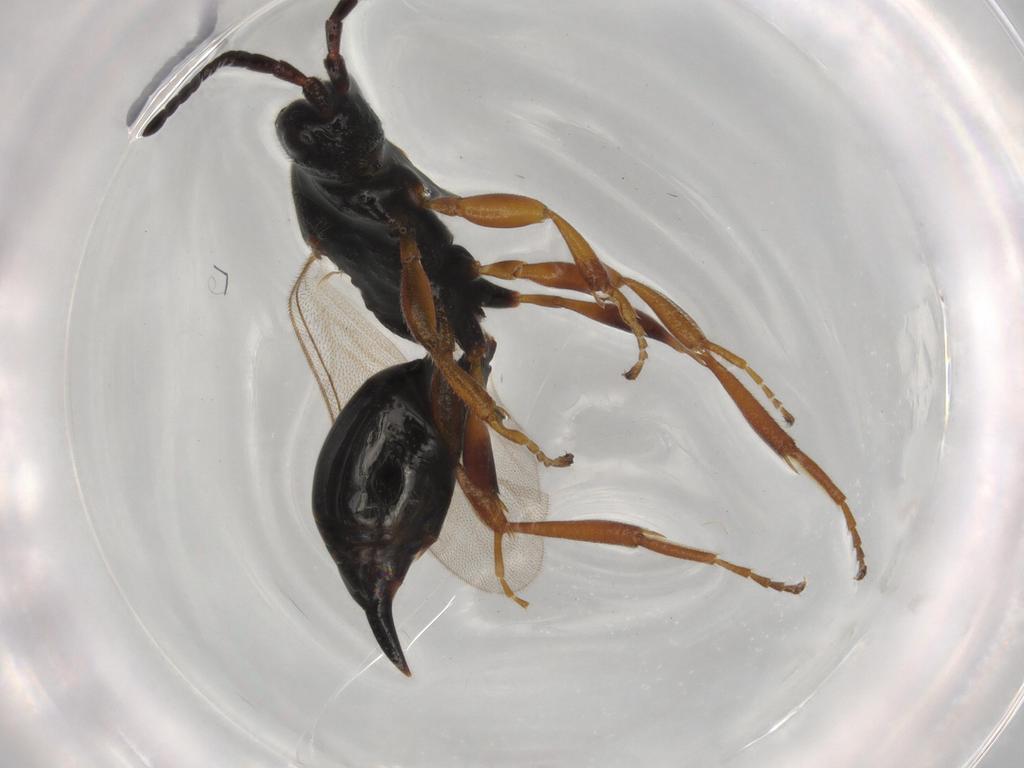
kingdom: Animalia
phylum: Arthropoda
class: Insecta
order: Hymenoptera
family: Proctotrupidae
